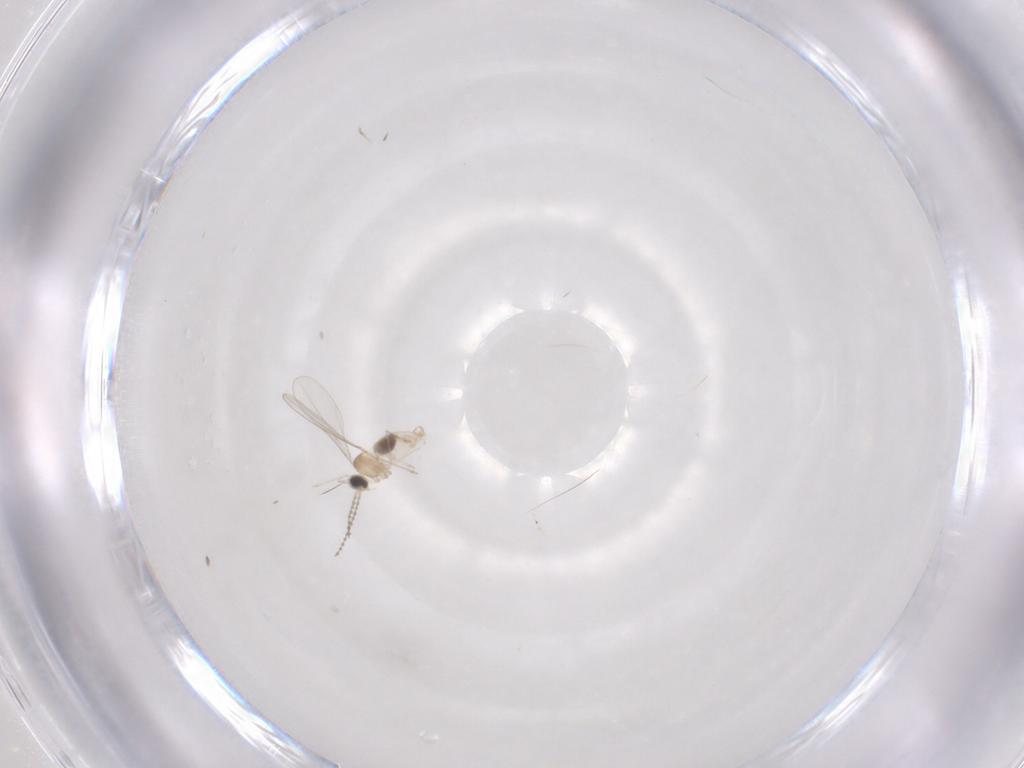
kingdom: Animalia
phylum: Arthropoda
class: Insecta
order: Diptera
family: Cecidomyiidae
